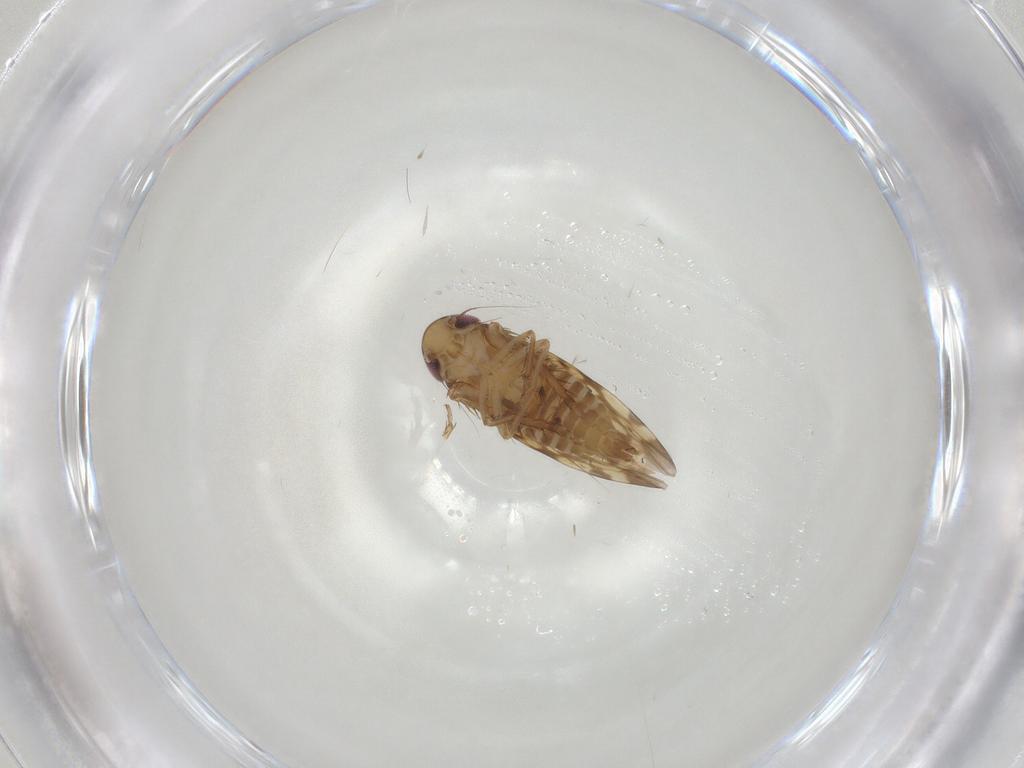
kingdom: Animalia
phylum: Arthropoda
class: Insecta
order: Hemiptera
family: Cicadellidae
